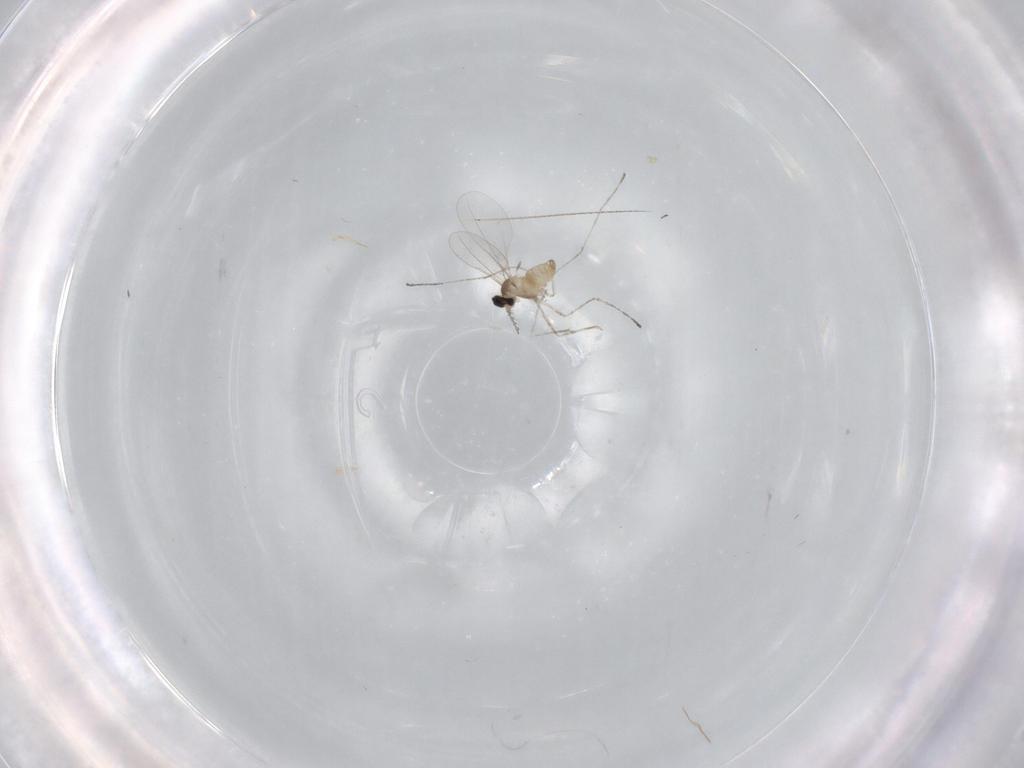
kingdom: Animalia
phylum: Arthropoda
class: Insecta
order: Diptera
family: Cecidomyiidae
